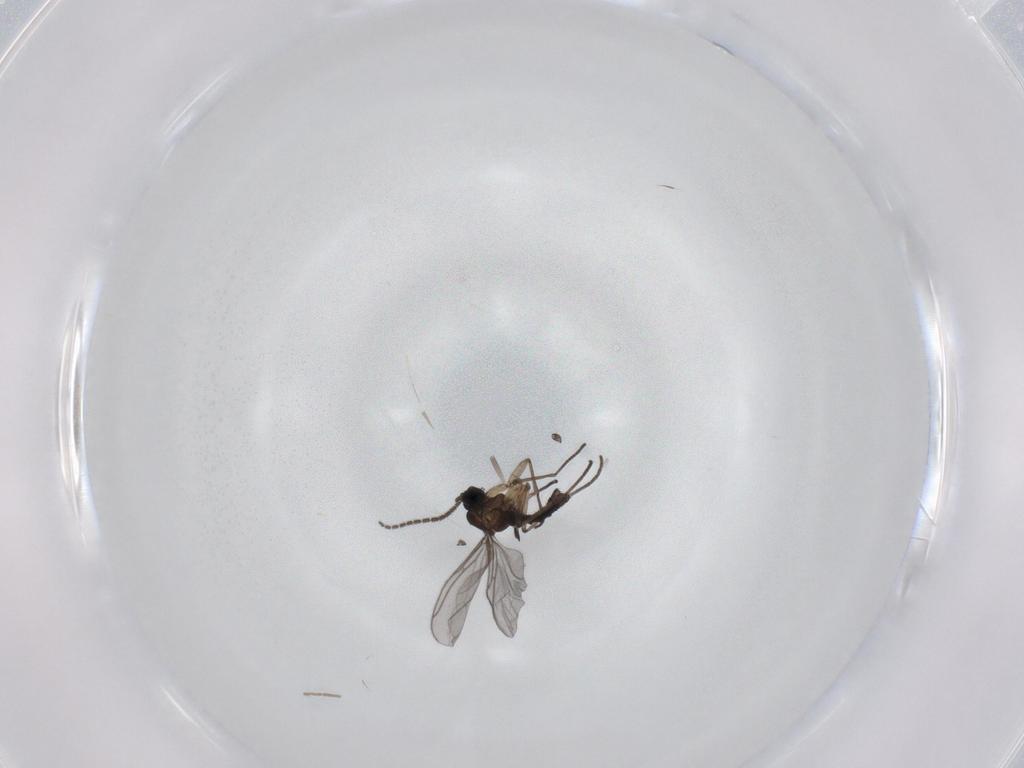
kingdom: Animalia
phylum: Arthropoda
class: Insecta
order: Diptera
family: Sciaridae
